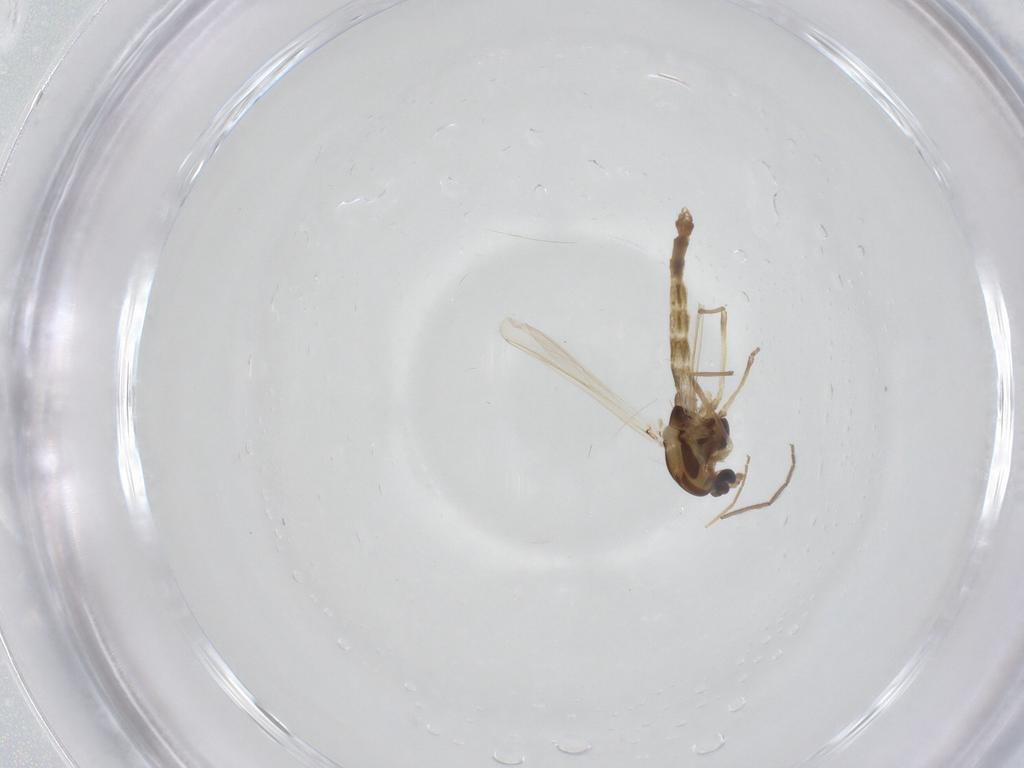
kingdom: Animalia
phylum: Arthropoda
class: Insecta
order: Diptera
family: Chironomidae
